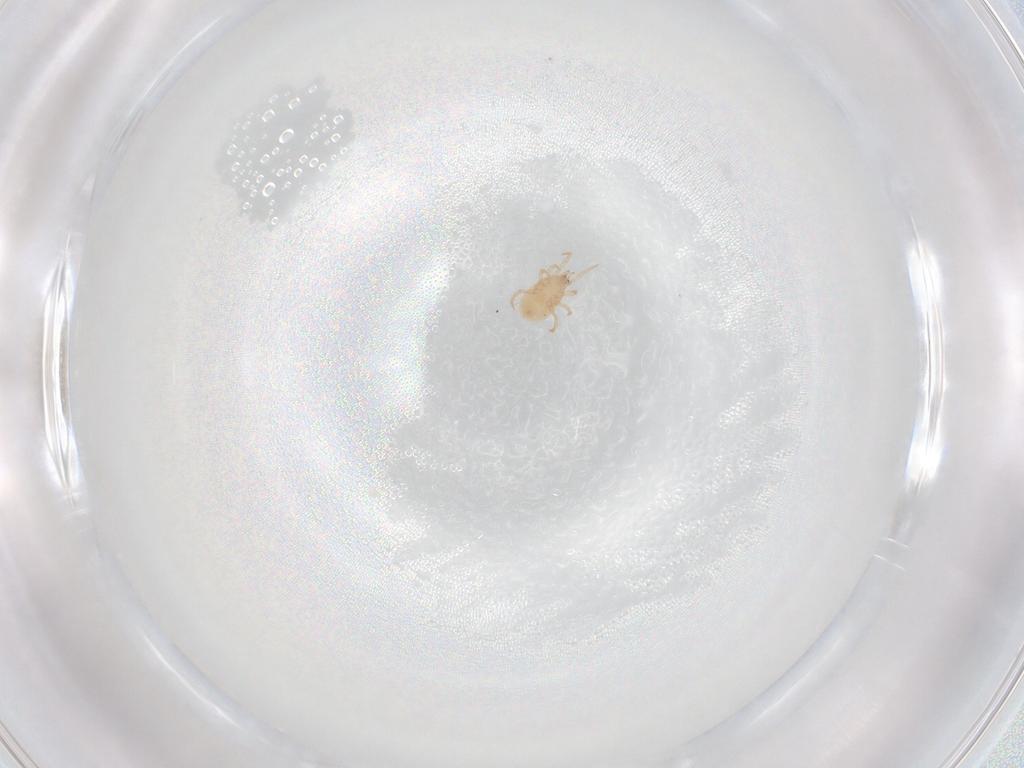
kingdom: Animalia
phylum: Arthropoda
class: Arachnida
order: Mesostigmata
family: Phytoseiidae
